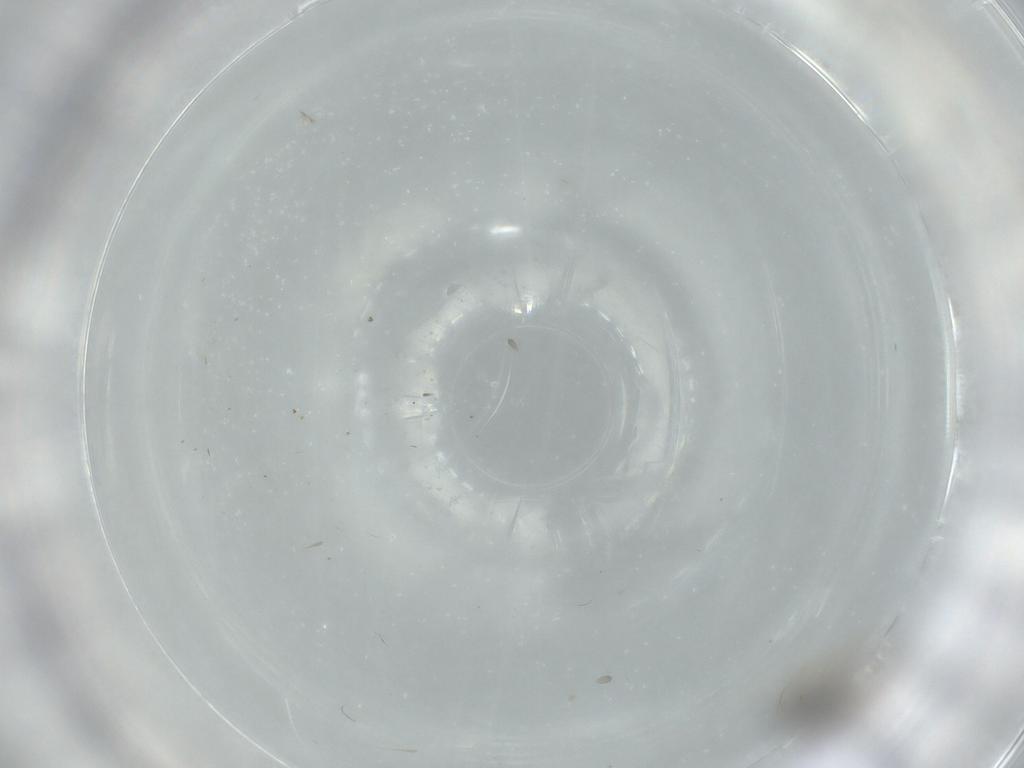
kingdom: Animalia
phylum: Arthropoda
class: Insecta
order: Diptera
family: Cecidomyiidae
